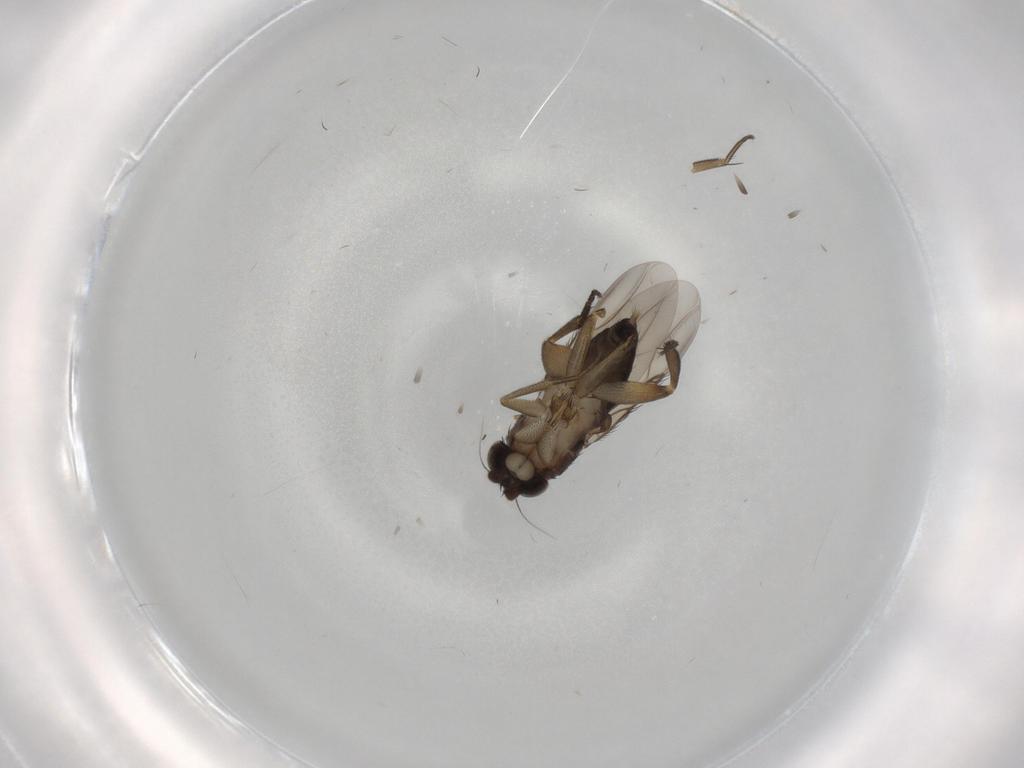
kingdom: Animalia
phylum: Arthropoda
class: Insecta
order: Diptera
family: Phoridae
